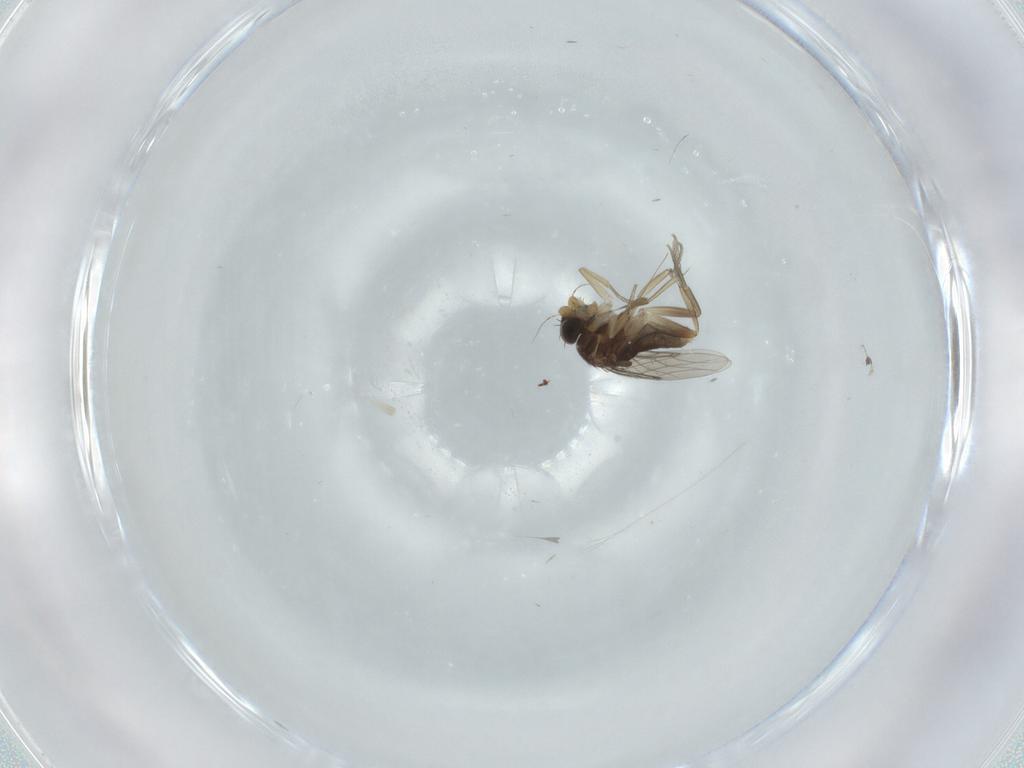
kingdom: Animalia
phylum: Arthropoda
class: Insecta
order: Diptera
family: Phoridae
